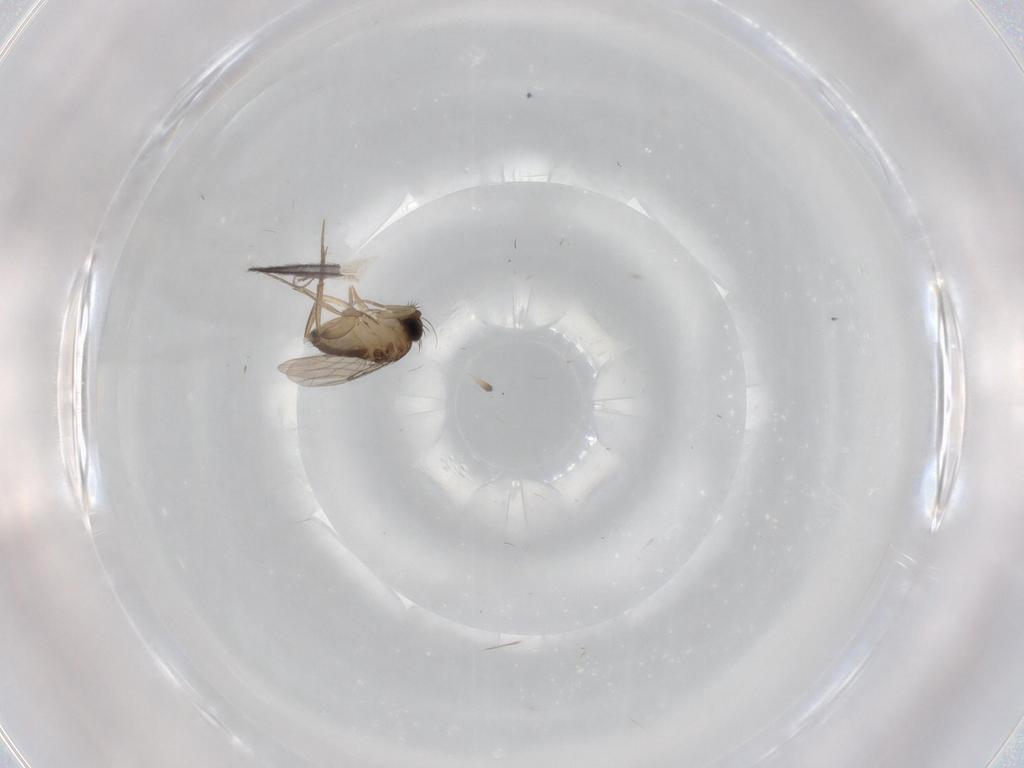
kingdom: Animalia
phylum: Arthropoda
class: Insecta
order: Diptera
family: Phoridae
